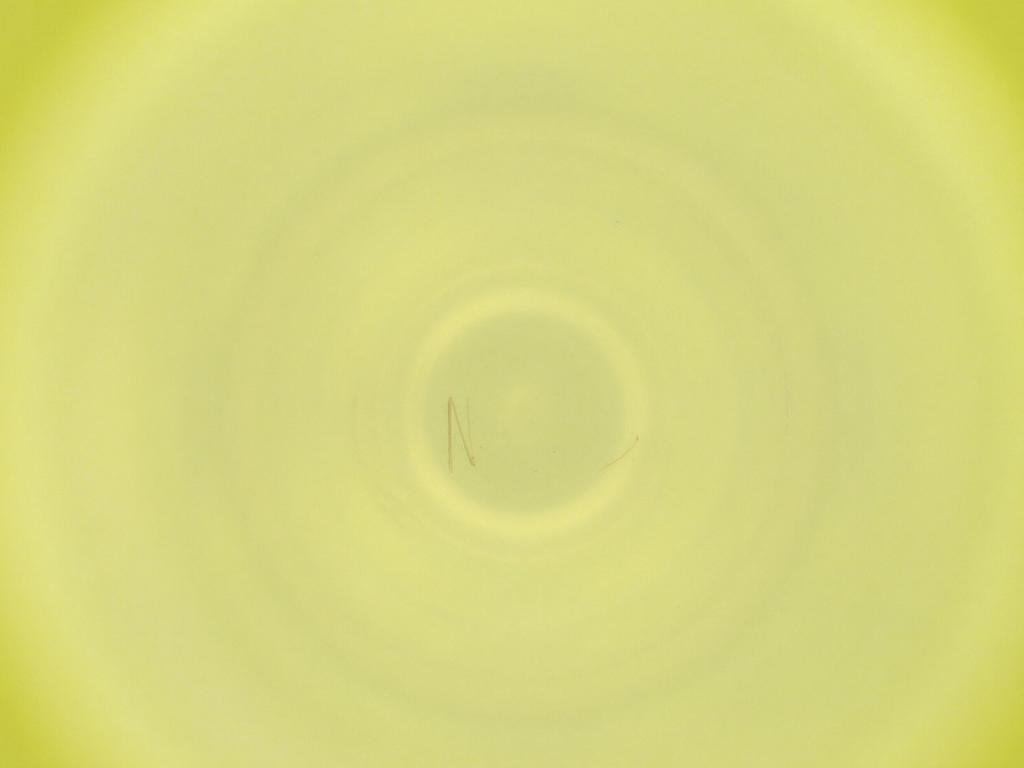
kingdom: Animalia
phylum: Arthropoda
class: Insecta
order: Diptera
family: Cecidomyiidae
